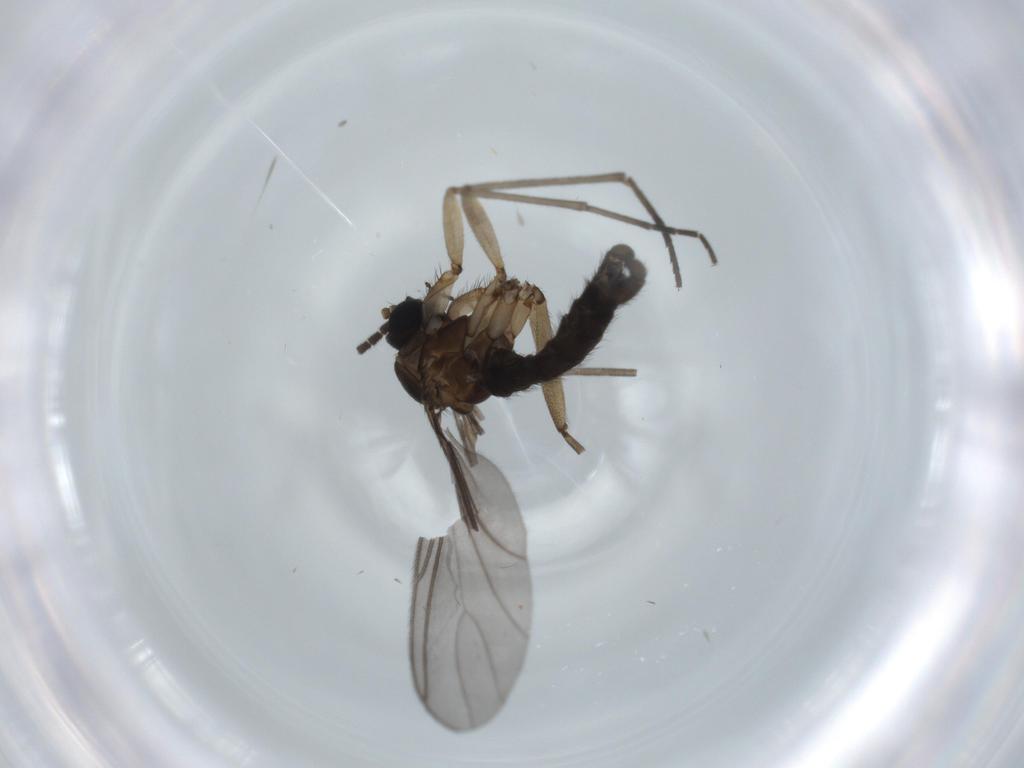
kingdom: Animalia
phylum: Arthropoda
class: Insecta
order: Diptera
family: Sciaridae
